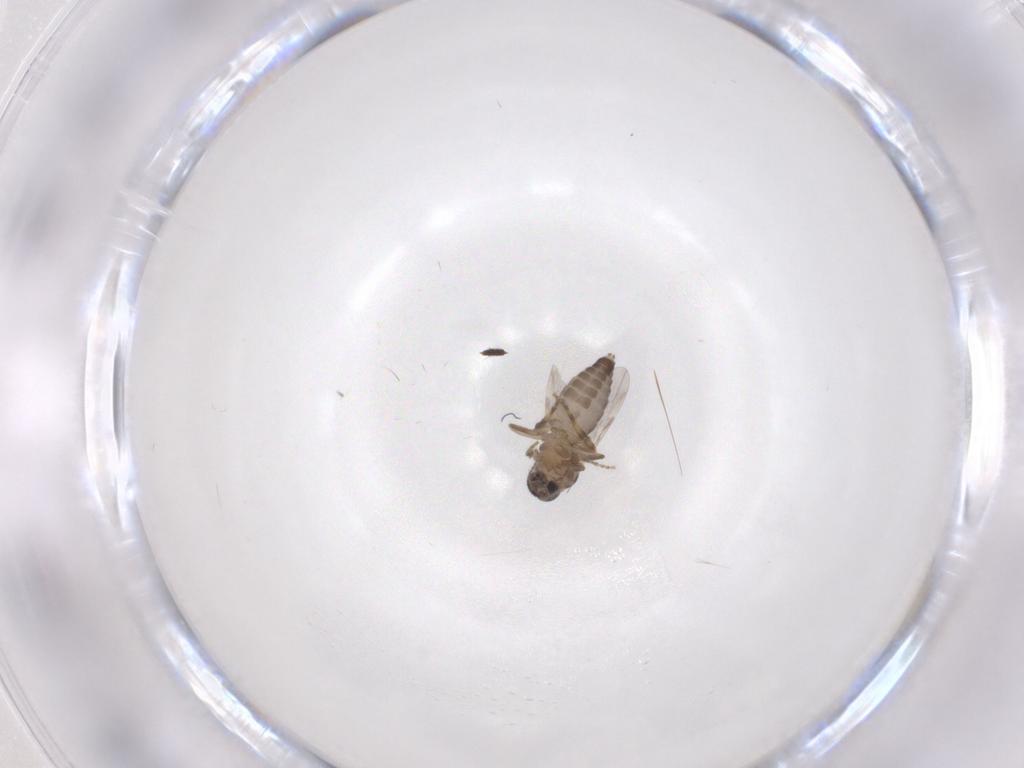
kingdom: Animalia
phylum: Arthropoda
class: Insecta
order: Diptera
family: Ceratopogonidae
